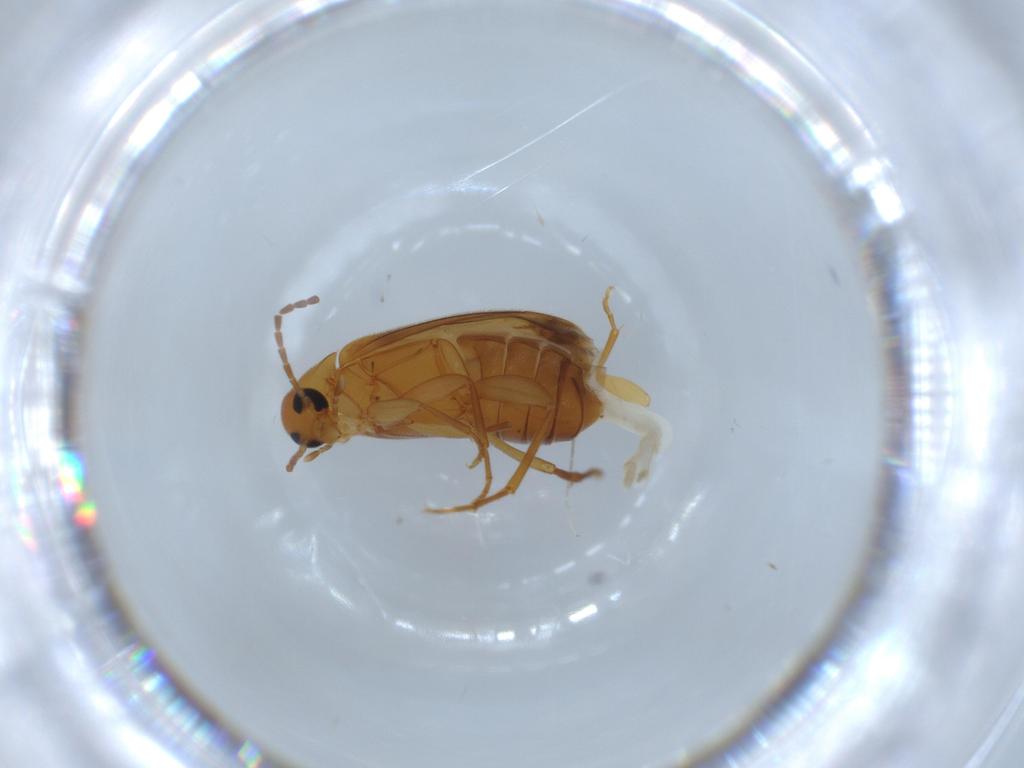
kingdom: Animalia
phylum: Arthropoda
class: Insecta
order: Coleoptera
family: Scraptiidae
